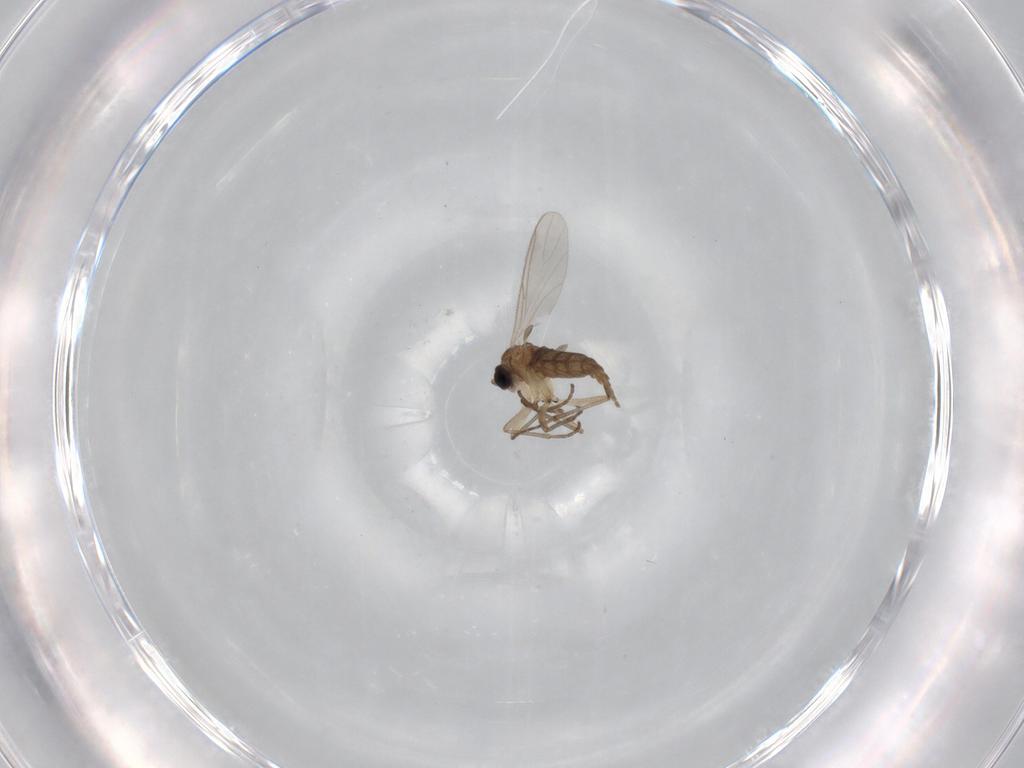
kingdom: Animalia
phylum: Arthropoda
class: Insecta
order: Diptera
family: Sciaridae
